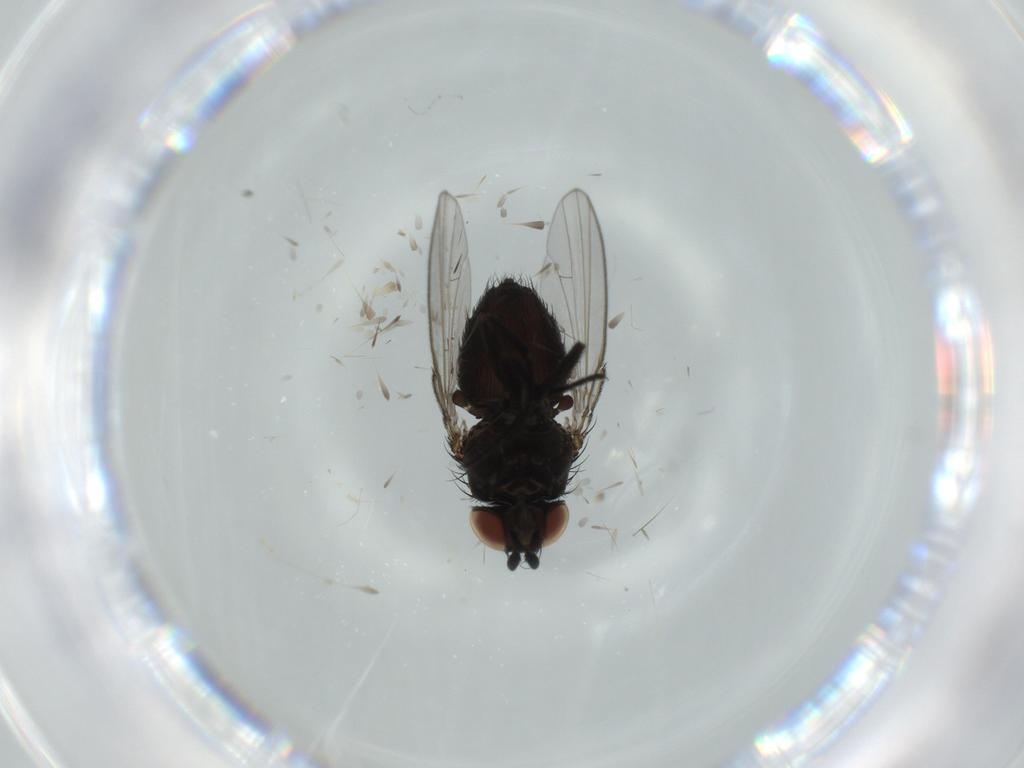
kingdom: Animalia
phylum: Arthropoda
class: Insecta
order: Diptera
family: Milichiidae
